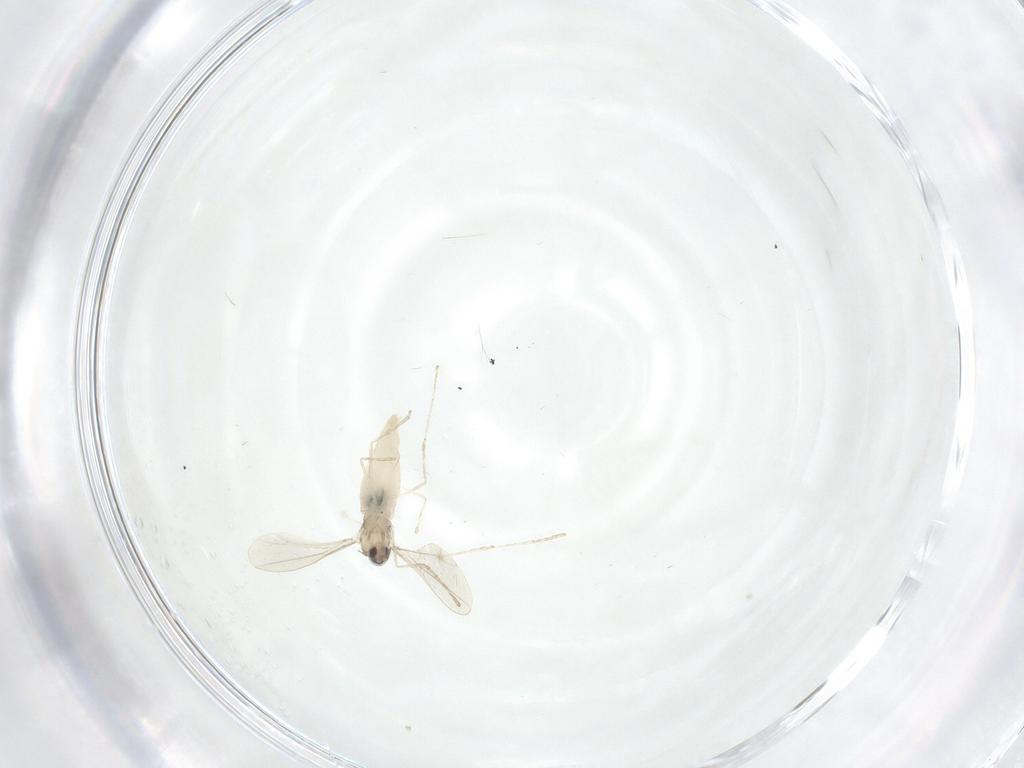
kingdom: Animalia
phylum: Arthropoda
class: Insecta
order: Diptera
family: Cecidomyiidae
